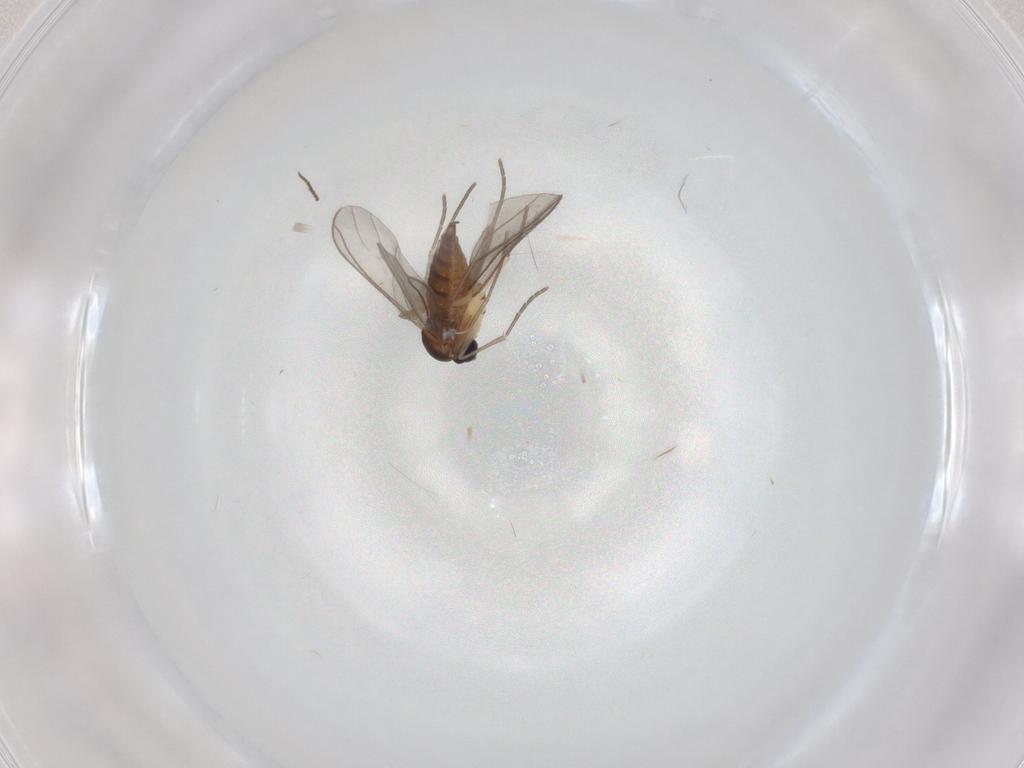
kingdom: Animalia
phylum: Arthropoda
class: Insecta
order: Diptera
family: Sciaridae
